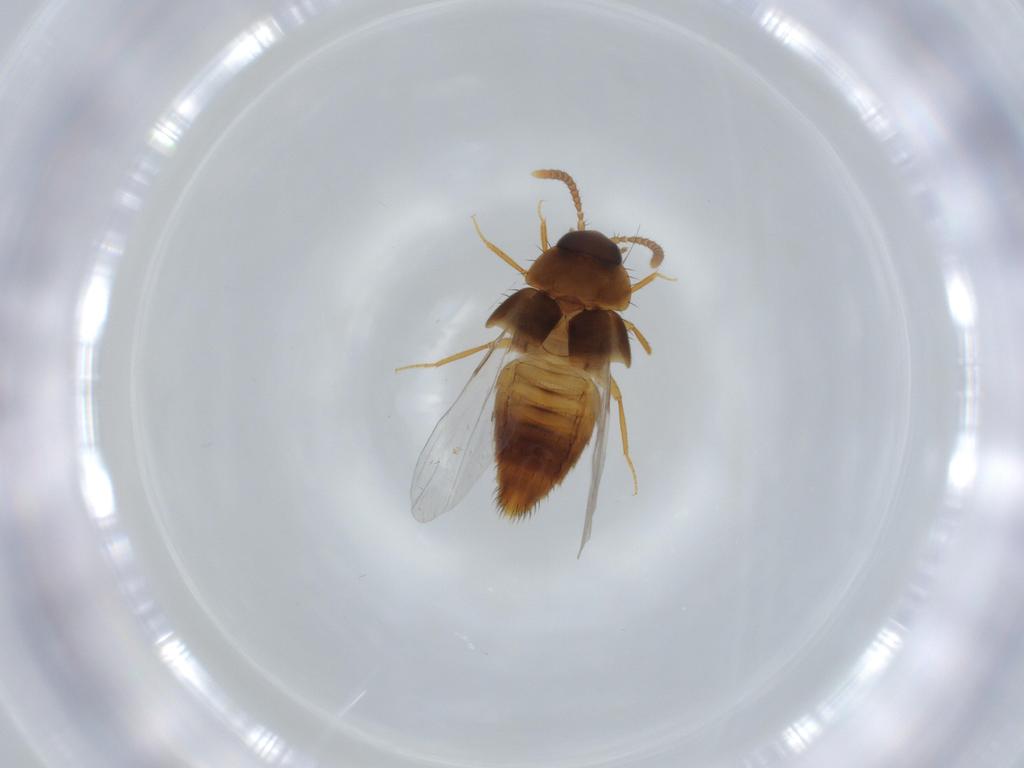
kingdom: Animalia
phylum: Arthropoda
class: Insecta
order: Coleoptera
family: Staphylinidae
